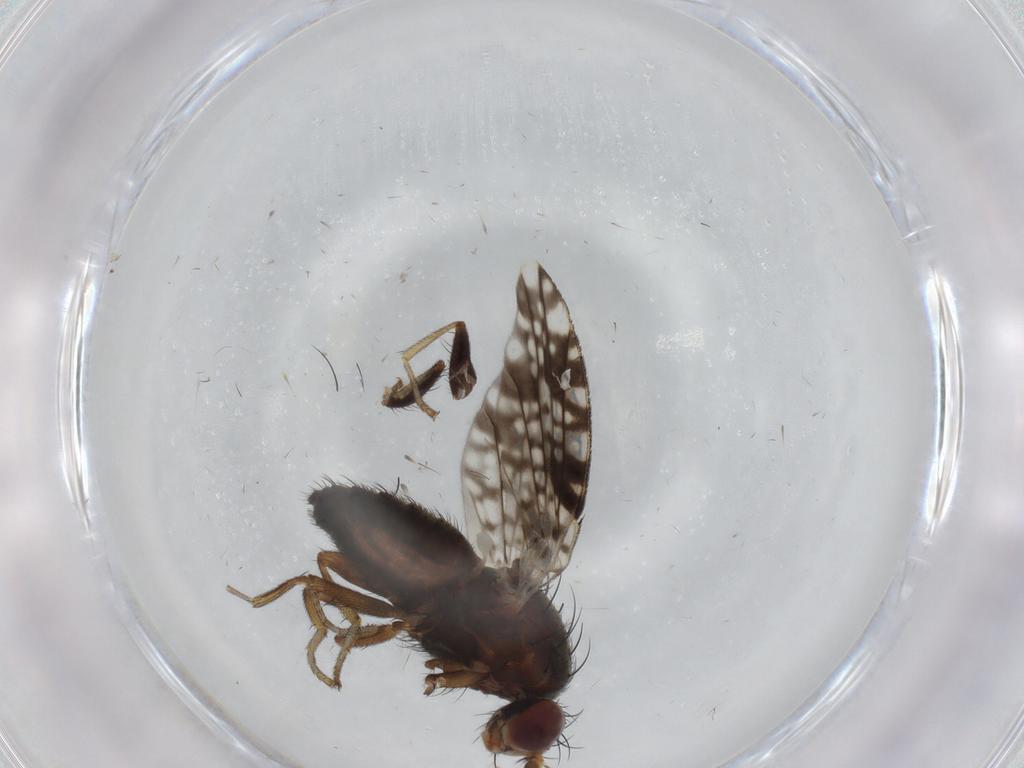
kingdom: Animalia
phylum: Arthropoda
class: Insecta
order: Diptera
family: Tephritidae
